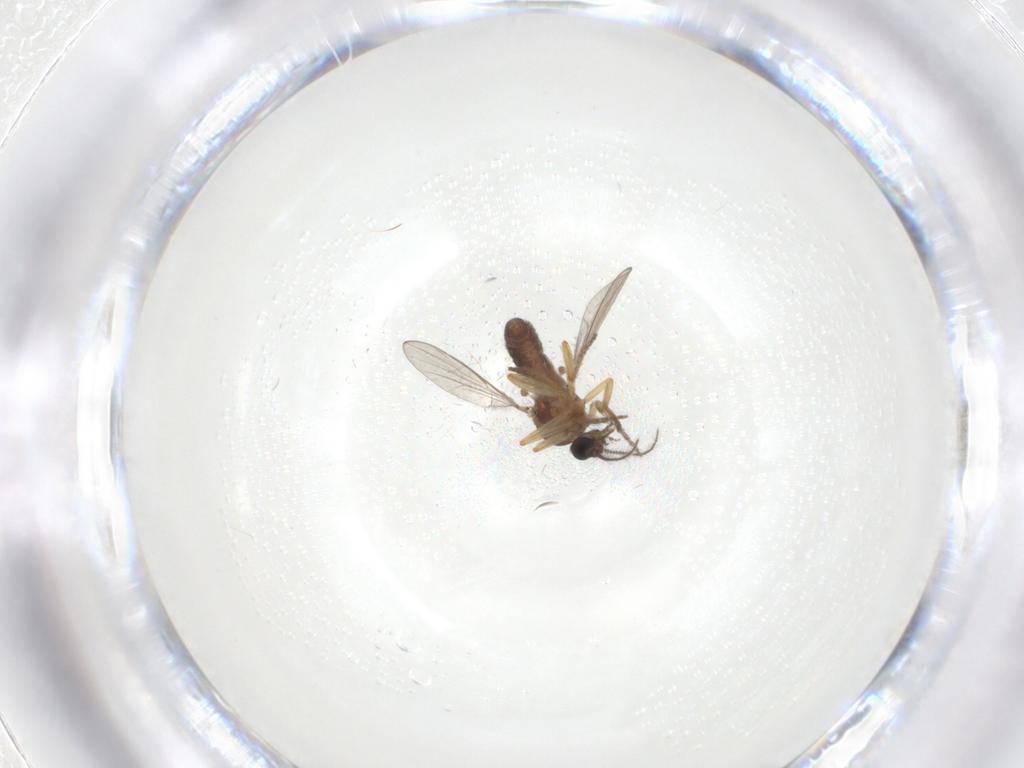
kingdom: Animalia
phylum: Arthropoda
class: Insecta
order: Diptera
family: Ceratopogonidae
